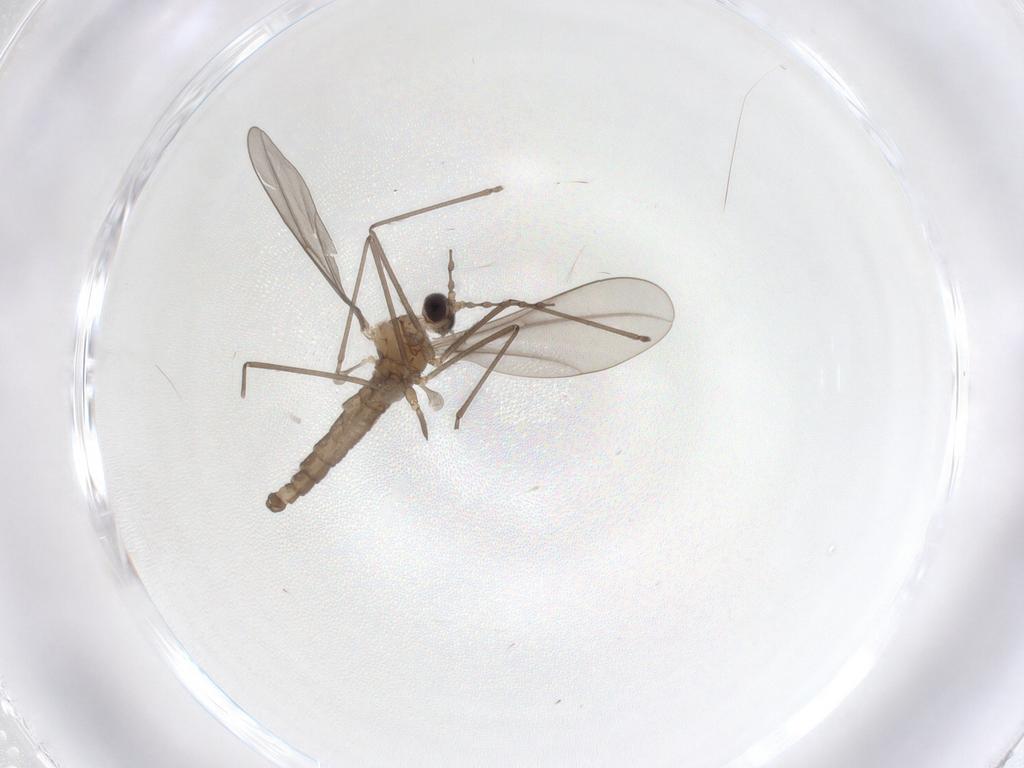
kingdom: Animalia
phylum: Arthropoda
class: Insecta
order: Diptera
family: Cecidomyiidae
